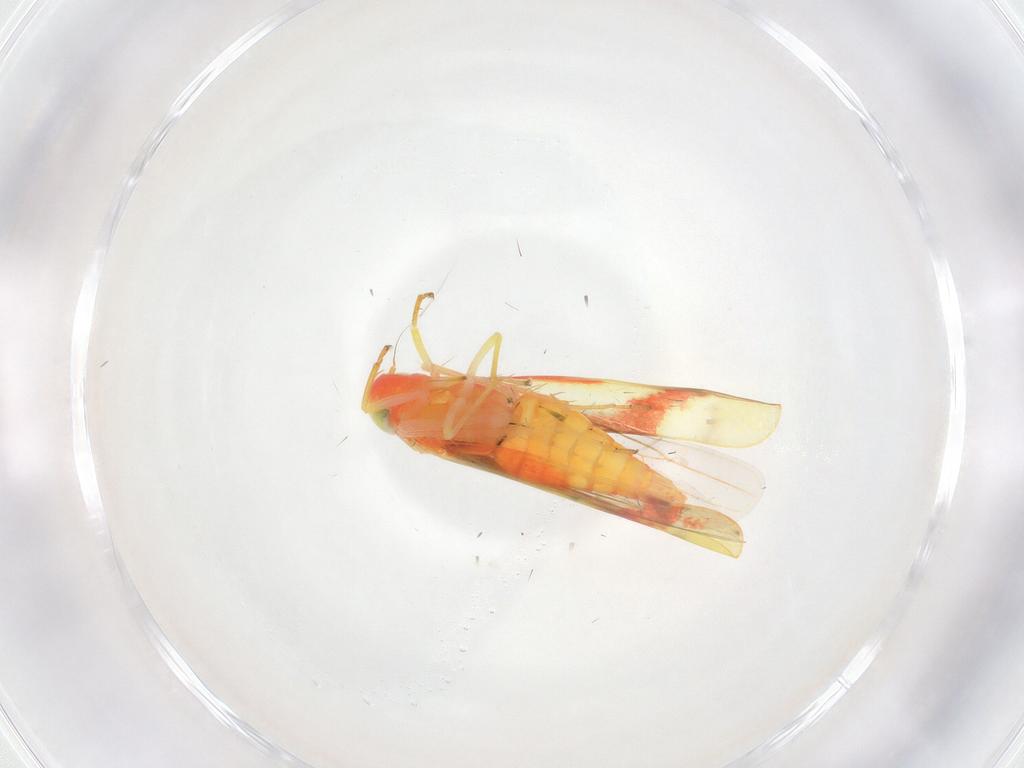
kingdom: Animalia
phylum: Arthropoda
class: Insecta
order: Hemiptera
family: Cicadellidae
